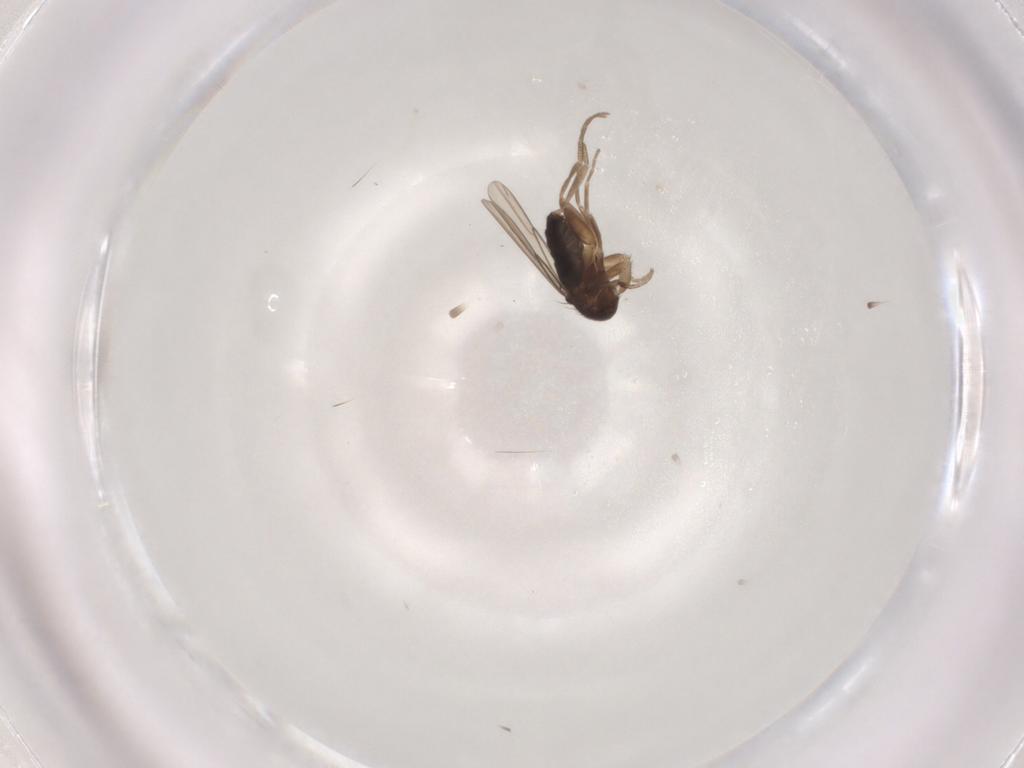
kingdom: Animalia
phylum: Arthropoda
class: Insecta
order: Diptera
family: Phoridae
